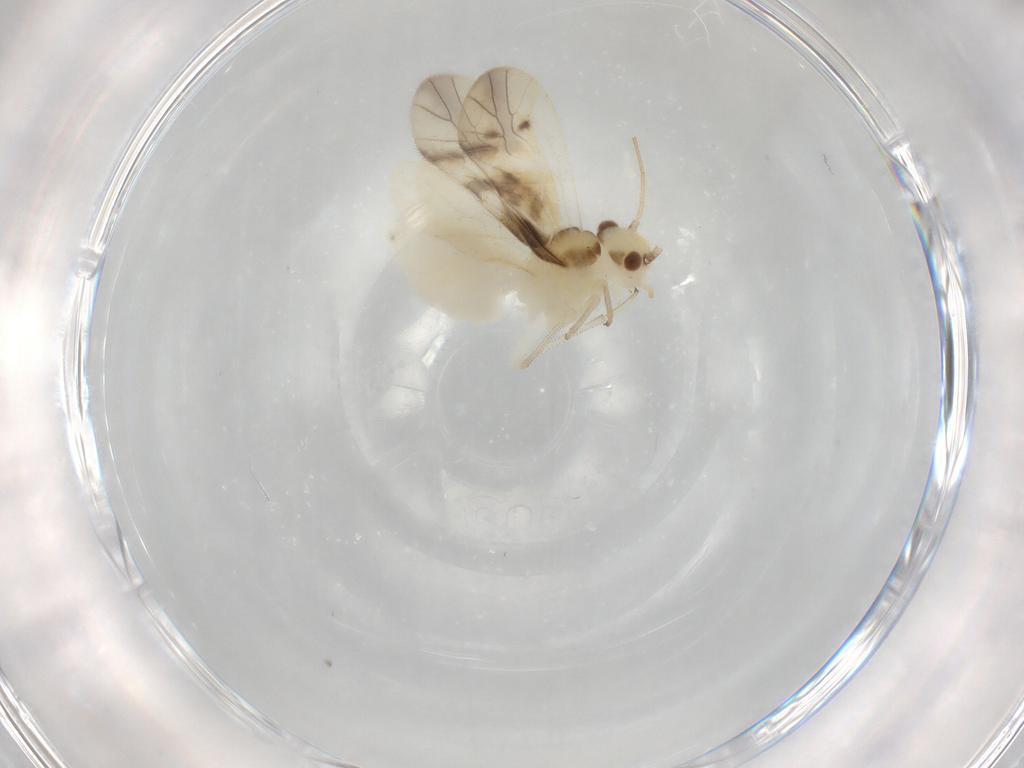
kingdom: Animalia
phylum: Arthropoda
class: Insecta
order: Psocodea
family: Caeciliusidae
